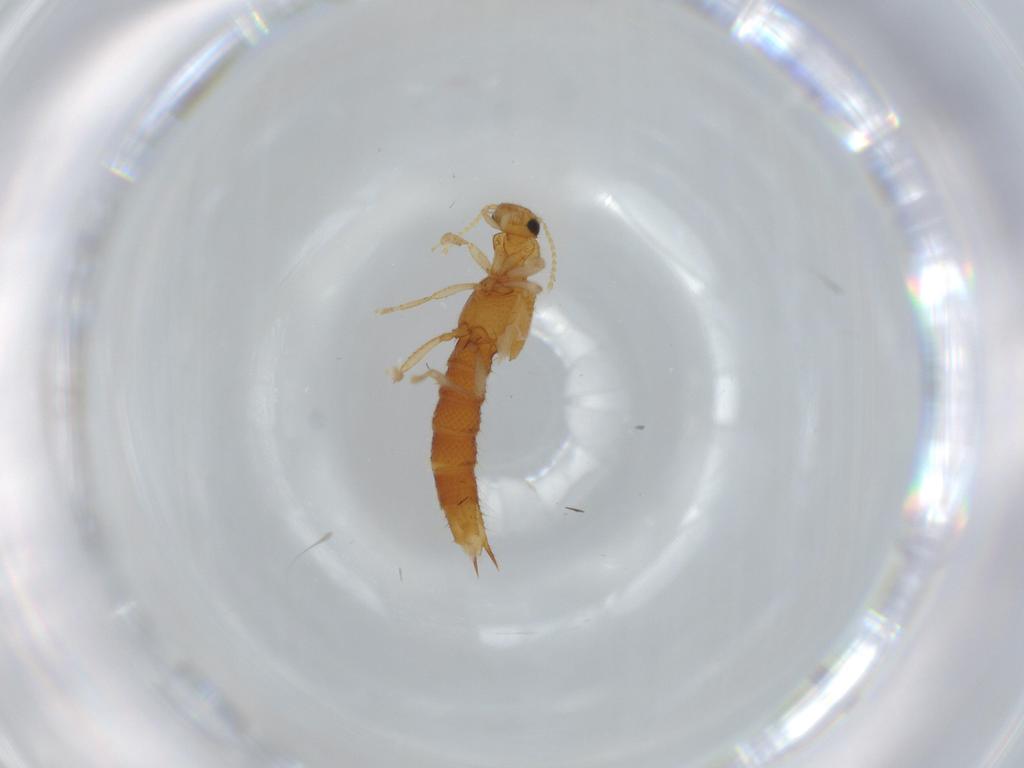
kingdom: Animalia
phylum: Arthropoda
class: Insecta
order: Coleoptera
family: Staphylinidae
